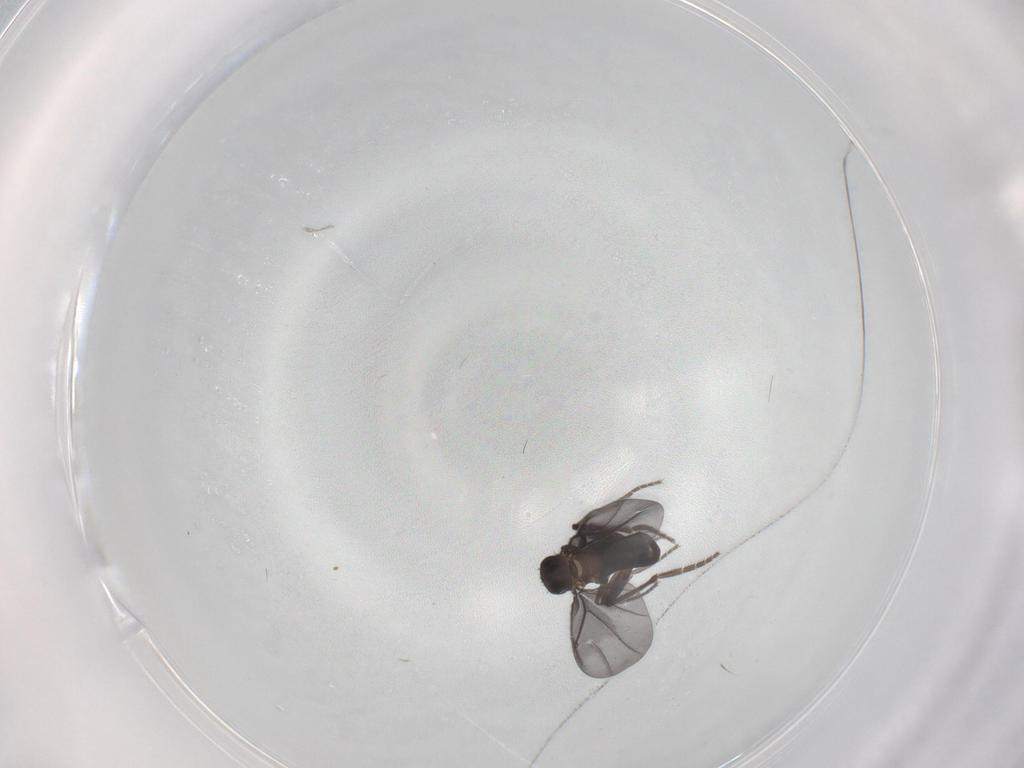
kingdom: Animalia
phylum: Arthropoda
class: Insecta
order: Diptera
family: Phoridae
